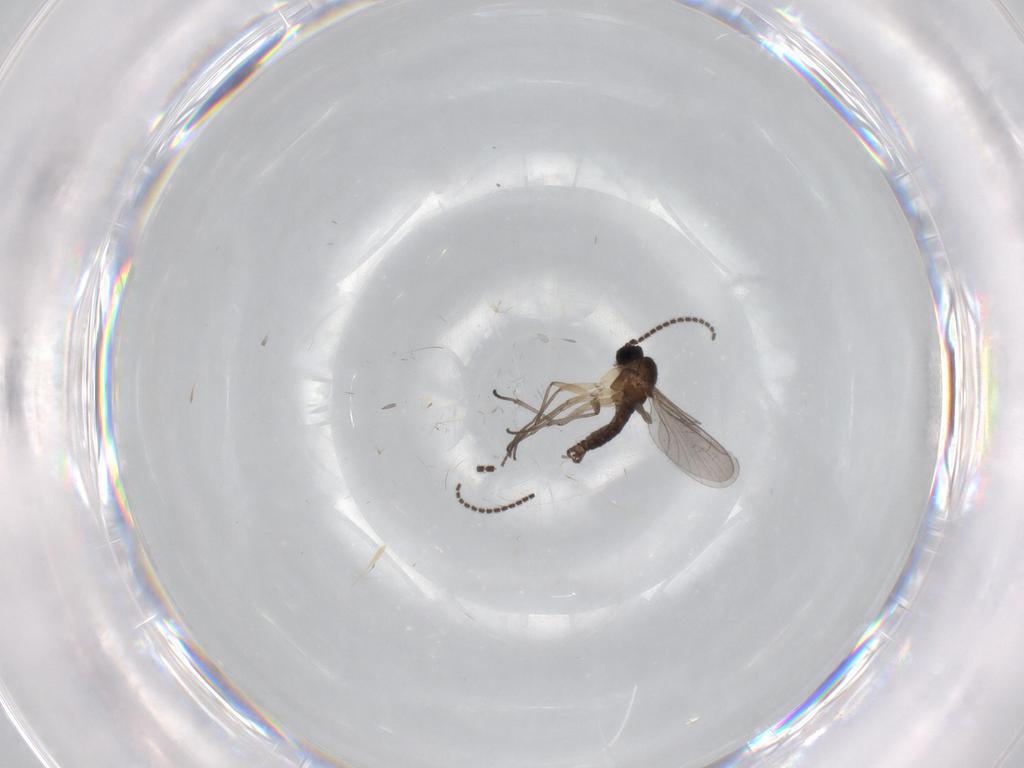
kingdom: Animalia
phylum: Arthropoda
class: Insecta
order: Diptera
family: Sciaridae
